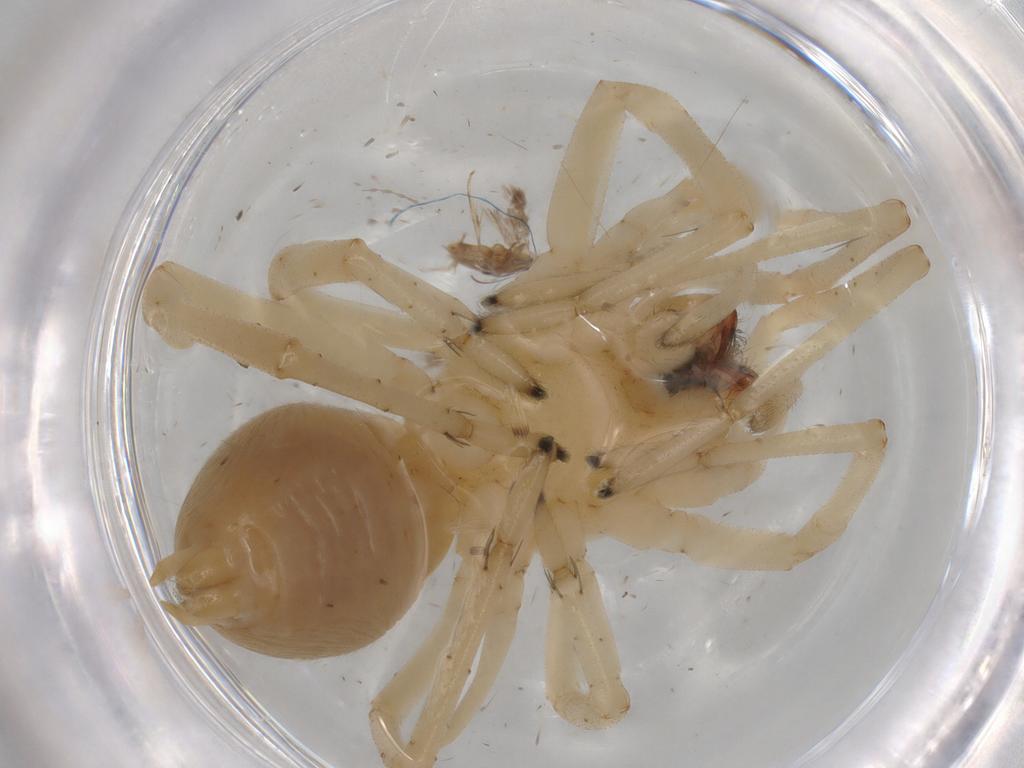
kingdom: Animalia
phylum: Arthropoda
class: Arachnida
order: Araneae
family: Cheiracanthiidae
